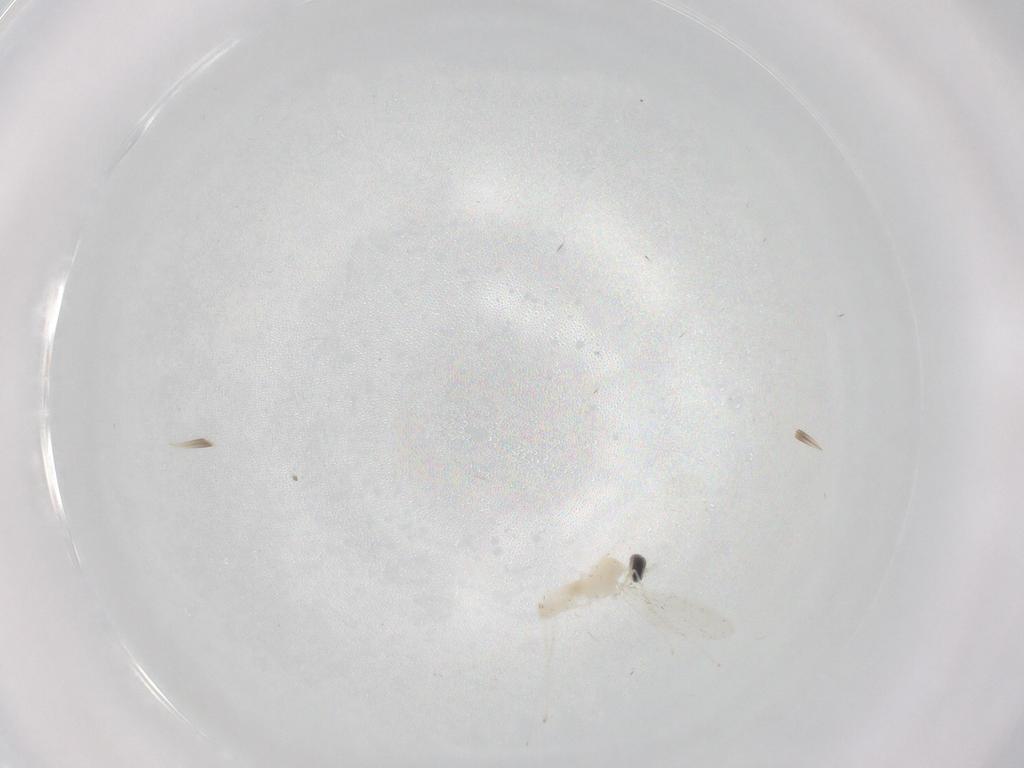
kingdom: Animalia
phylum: Arthropoda
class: Insecta
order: Diptera
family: Cecidomyiidae
